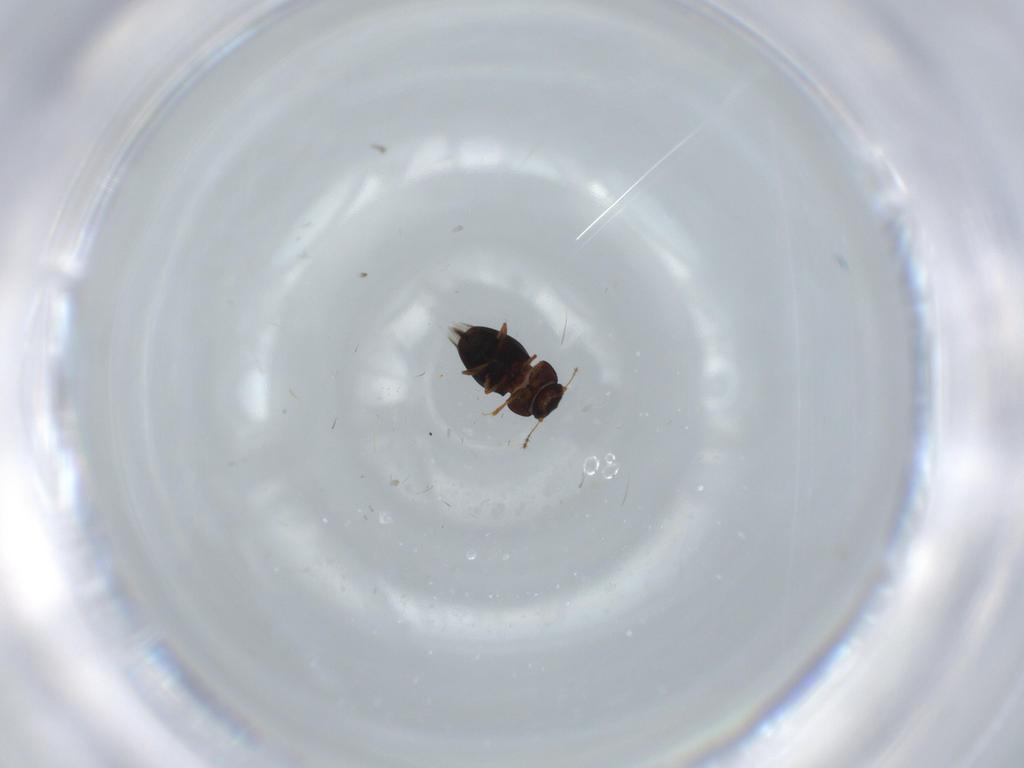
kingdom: Animalia
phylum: Arthropoda
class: Insecta
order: Coleoptera
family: Ptiliidae
